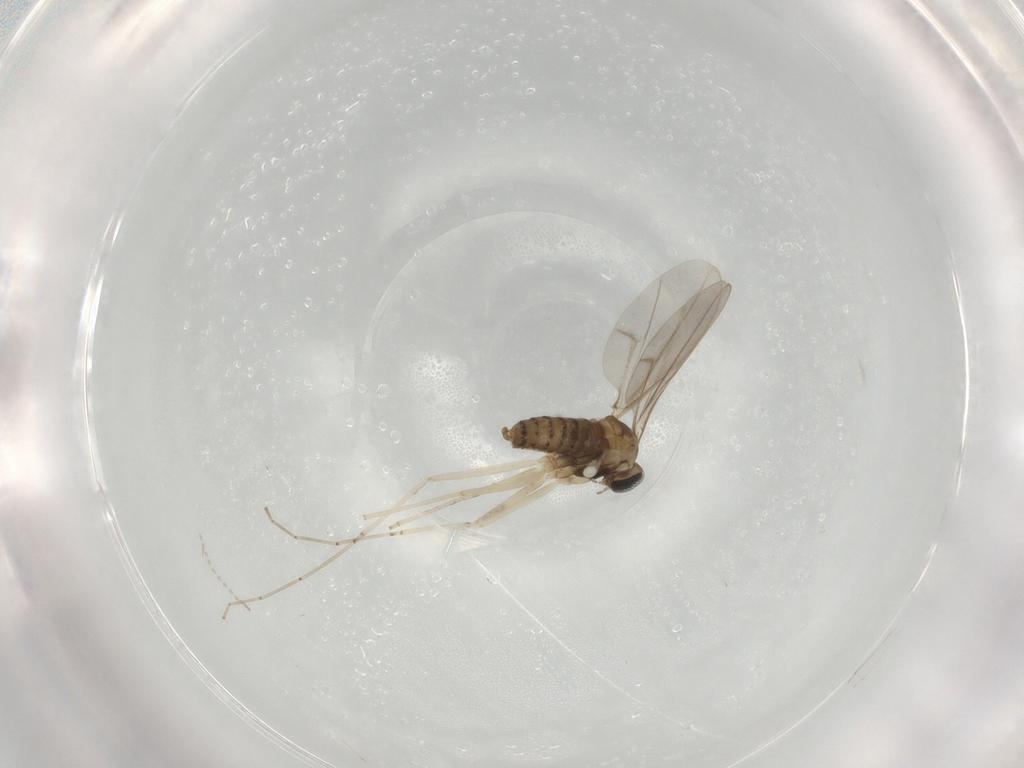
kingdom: Animalia
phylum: Arthropoda
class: Insecta
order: Diptera
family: Cecidomyiidae
